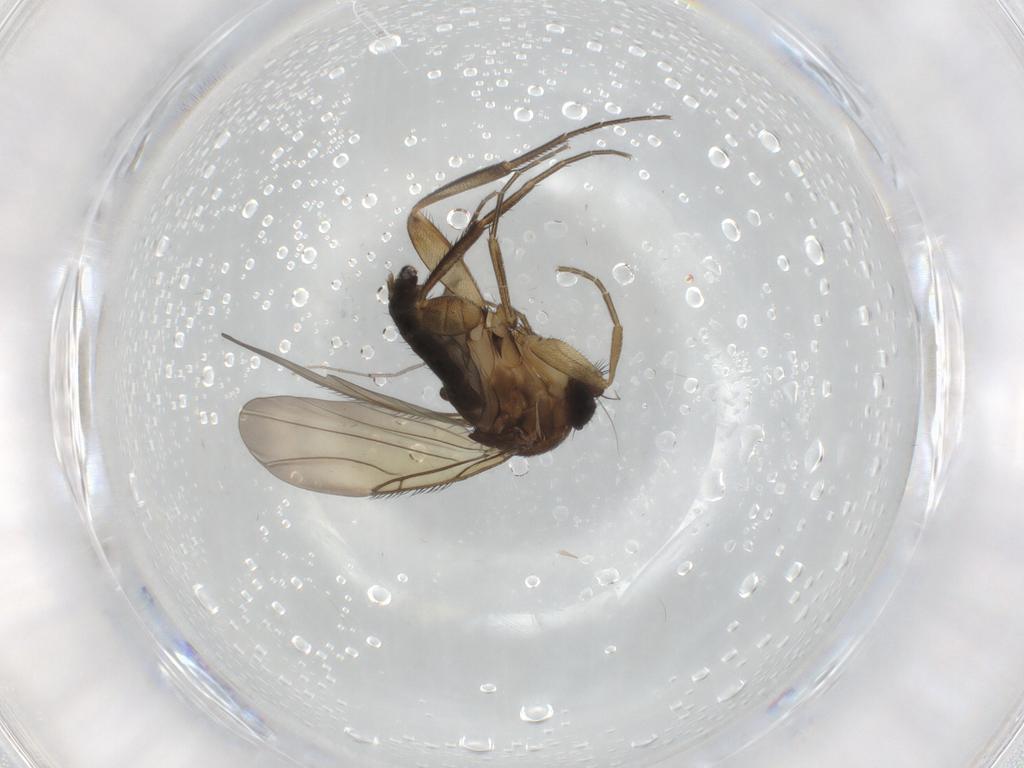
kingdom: Animalia
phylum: Arthropoda
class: Insecta
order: Diptera
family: Phoridae
